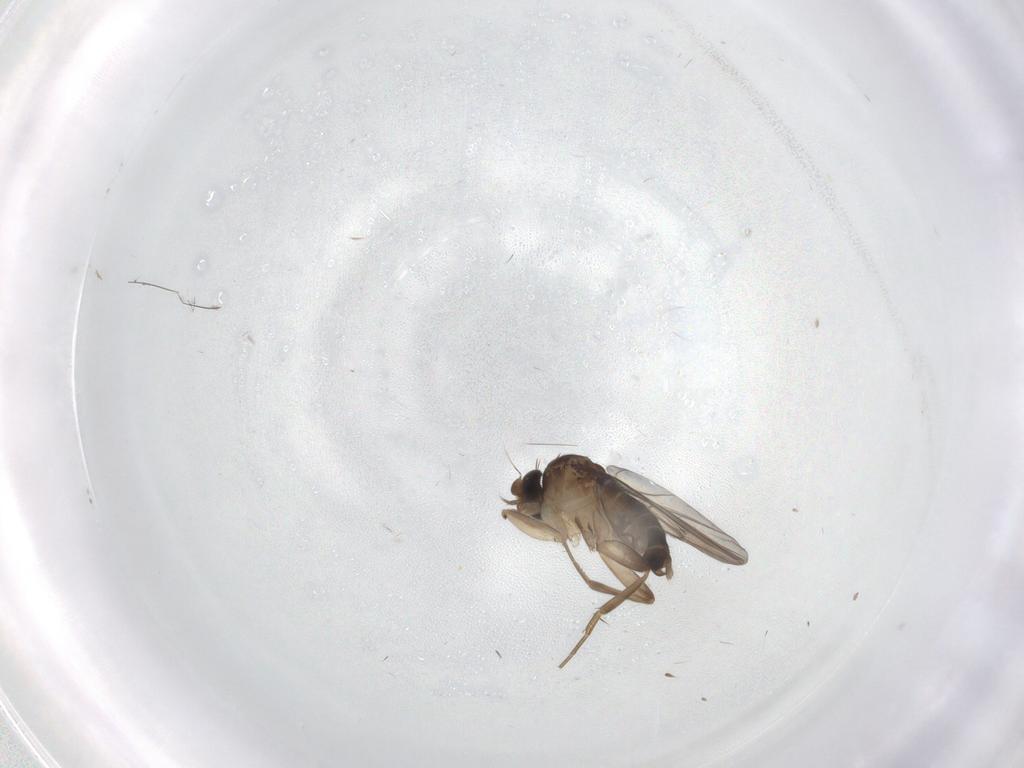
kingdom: Animalia
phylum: Arthropoda
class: Insecta
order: Diptera
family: Phoridae
